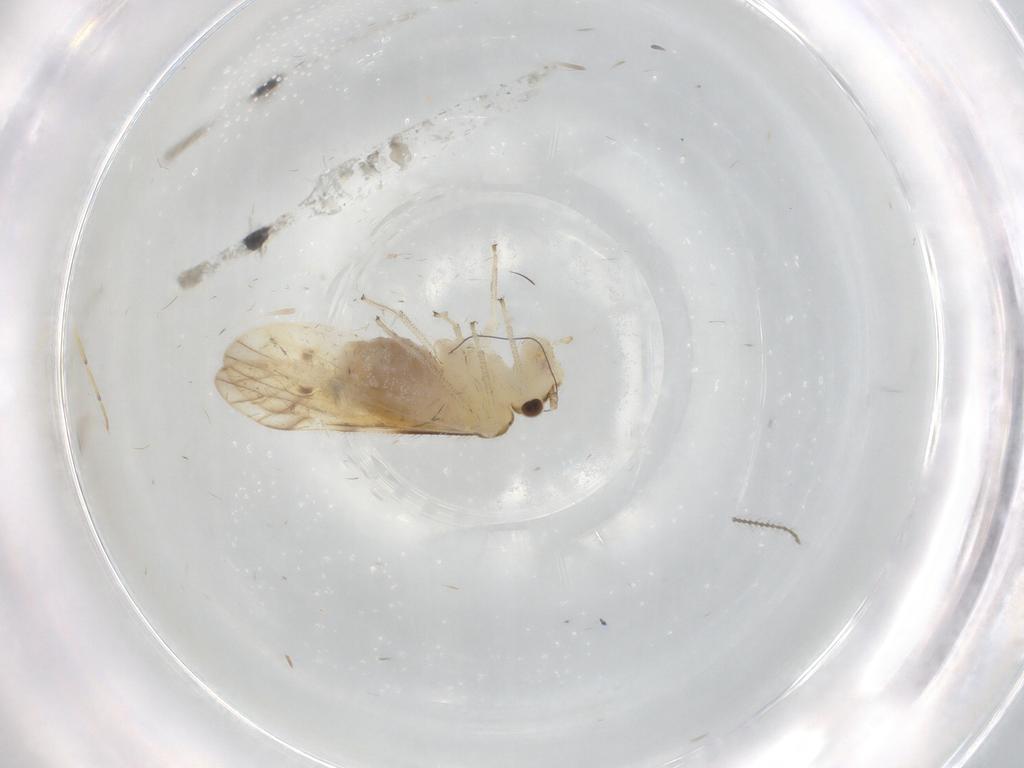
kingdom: Animalia
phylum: Arthropoda
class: Insecta
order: Psocodea
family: Caeciliusidae
